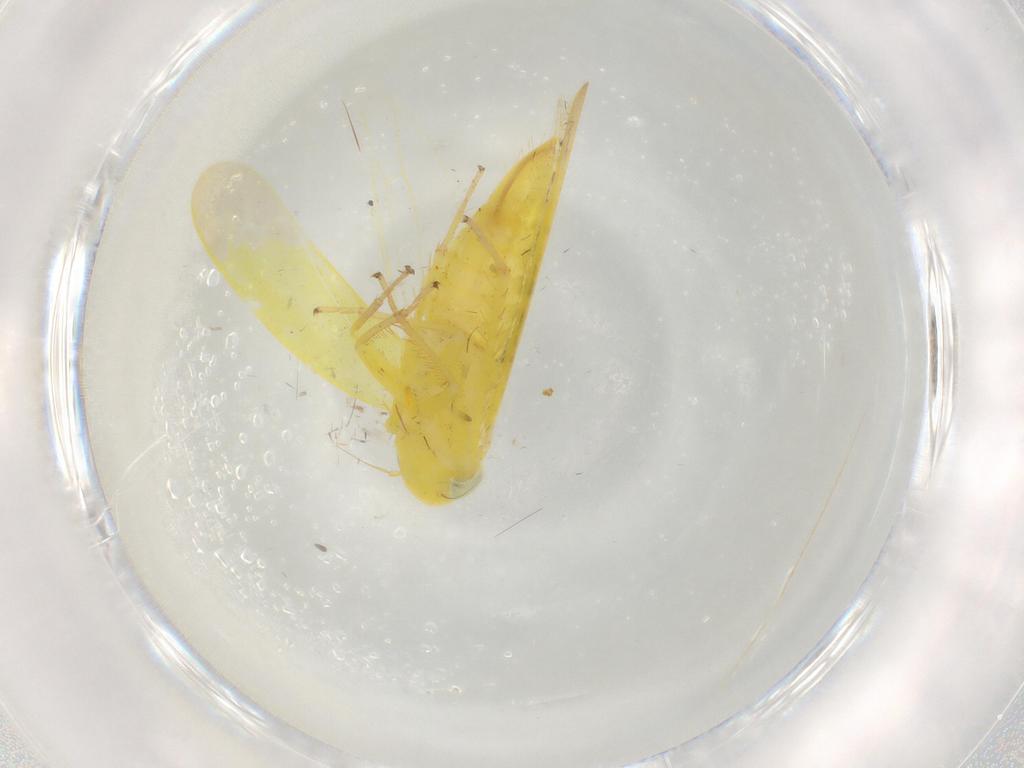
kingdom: Animalia
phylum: Arthropoda
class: Insecta
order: Hemiptera
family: Cicadellidae
